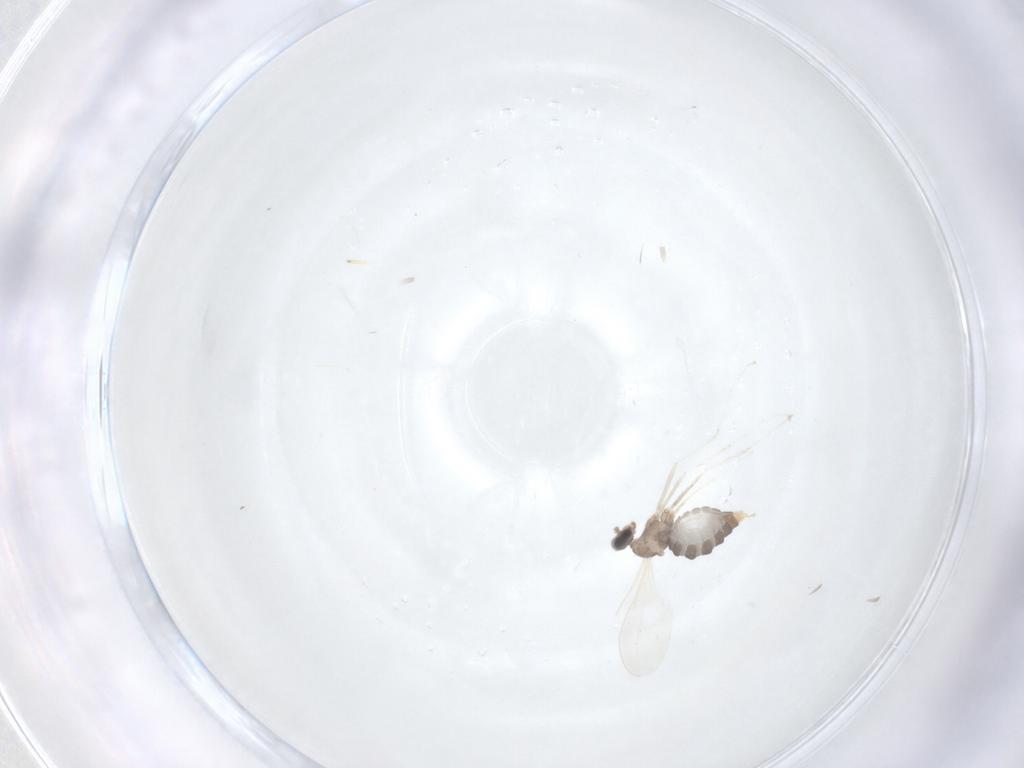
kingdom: Animalia
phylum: Arthropoda
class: Insecta
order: Diptera
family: Cecidomyiidae
